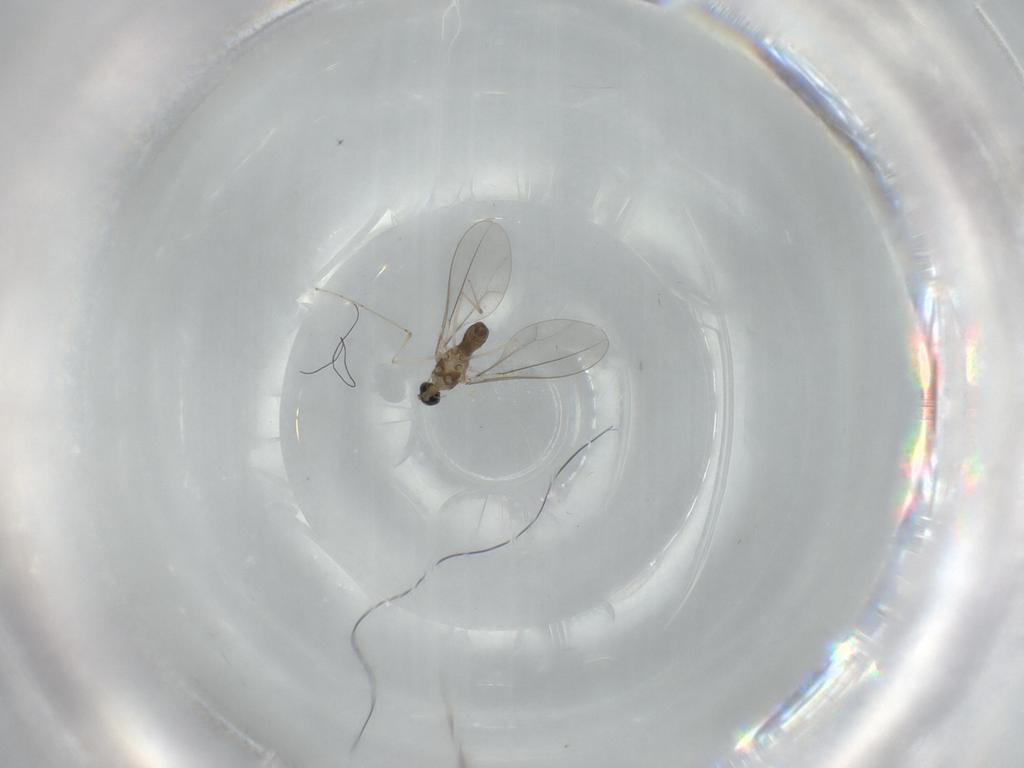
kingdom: Animalia
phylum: Arthropoda
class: Insecta
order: Diptera
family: Cecidomyiidae
